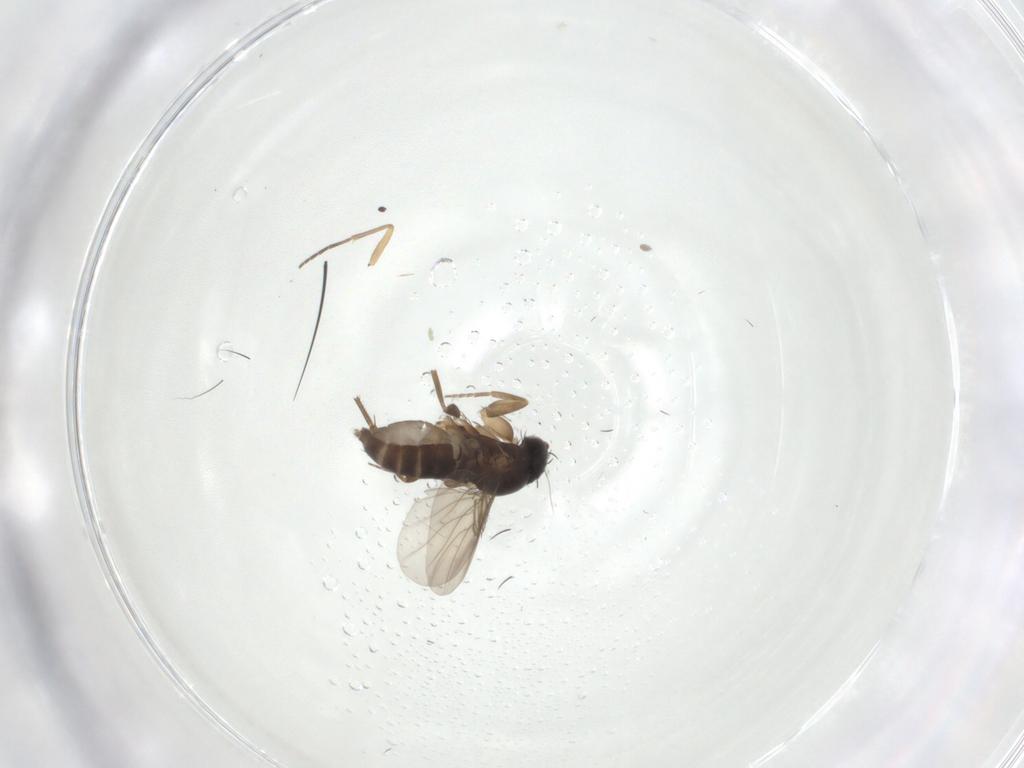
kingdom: Animalia
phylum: Arthropoda
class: Insecta
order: Diptera
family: Phoridae
